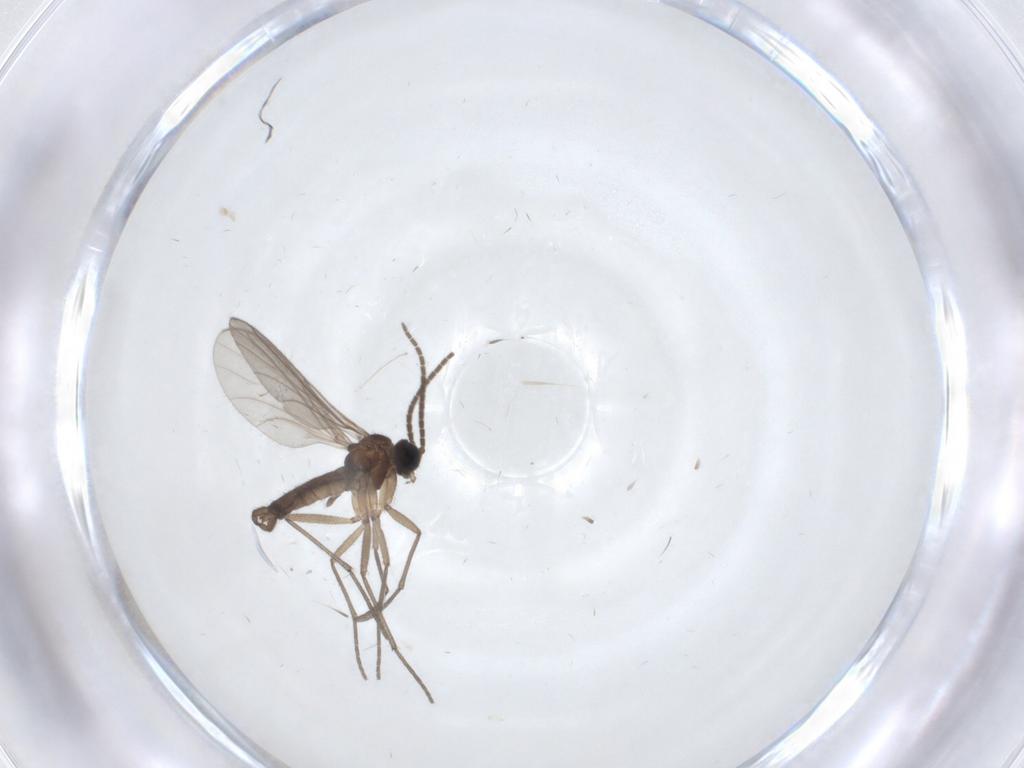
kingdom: Animalia
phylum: Arthropoda
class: Insecta
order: Diptera
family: Sciaridae
